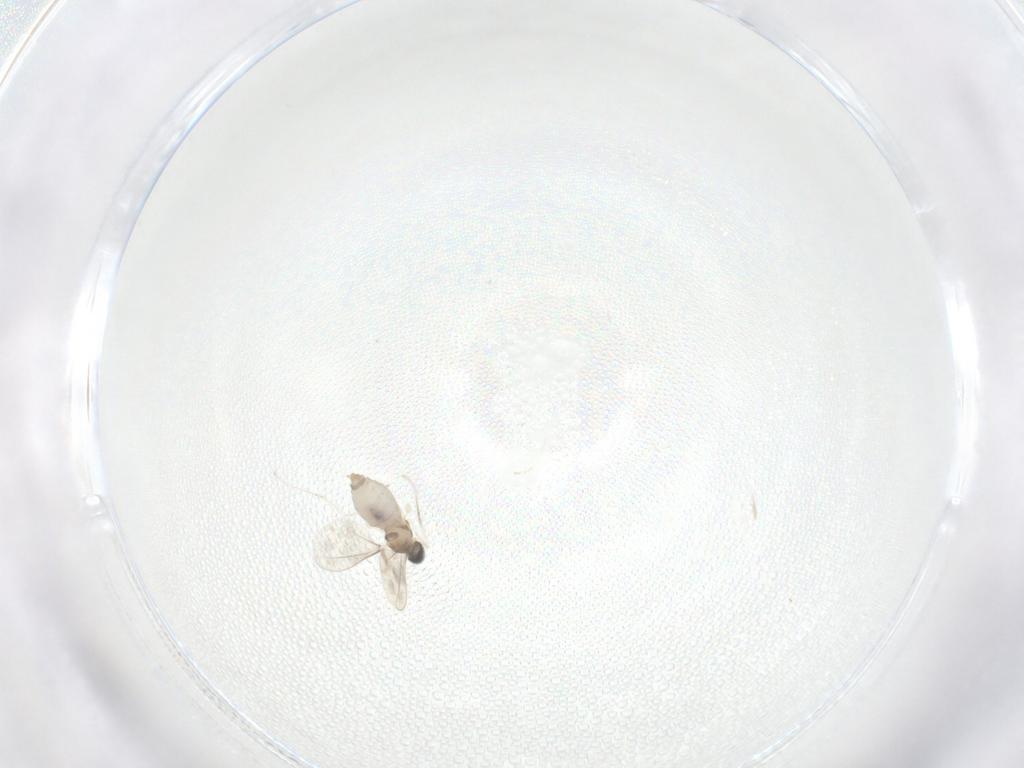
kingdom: Animalia
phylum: Arthropoda
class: Insecta
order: Diptera
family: Cecidomyiidae
